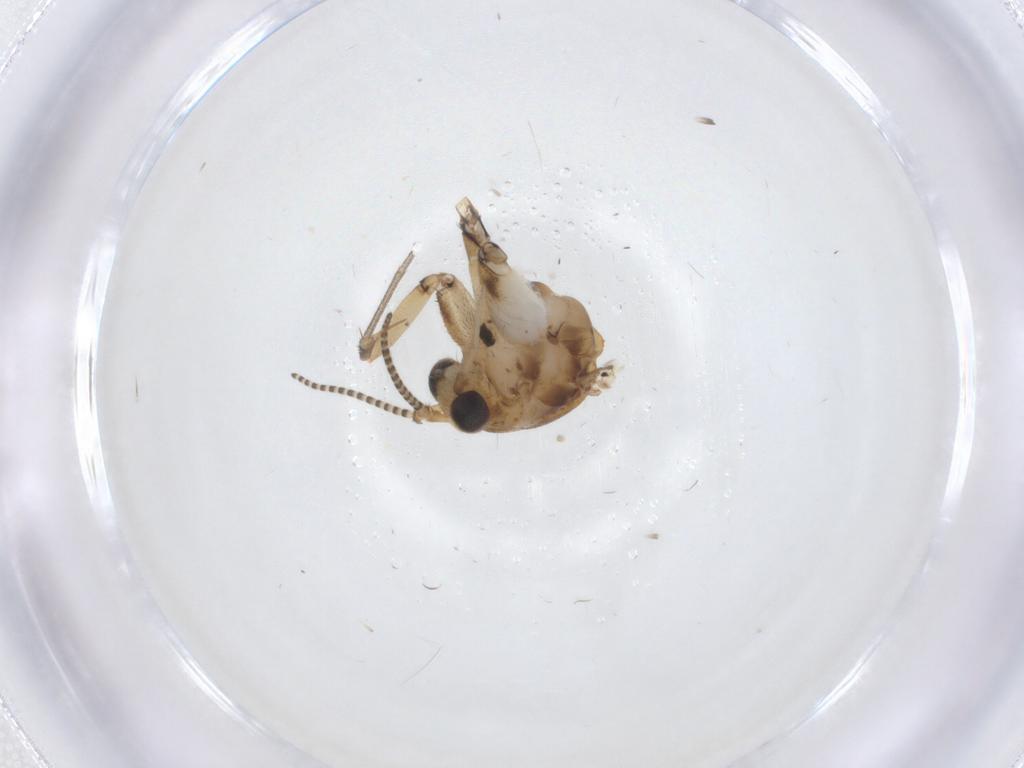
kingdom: Animalia
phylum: Arthropoda
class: Insecta
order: Diptera
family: Mycetophilidae
